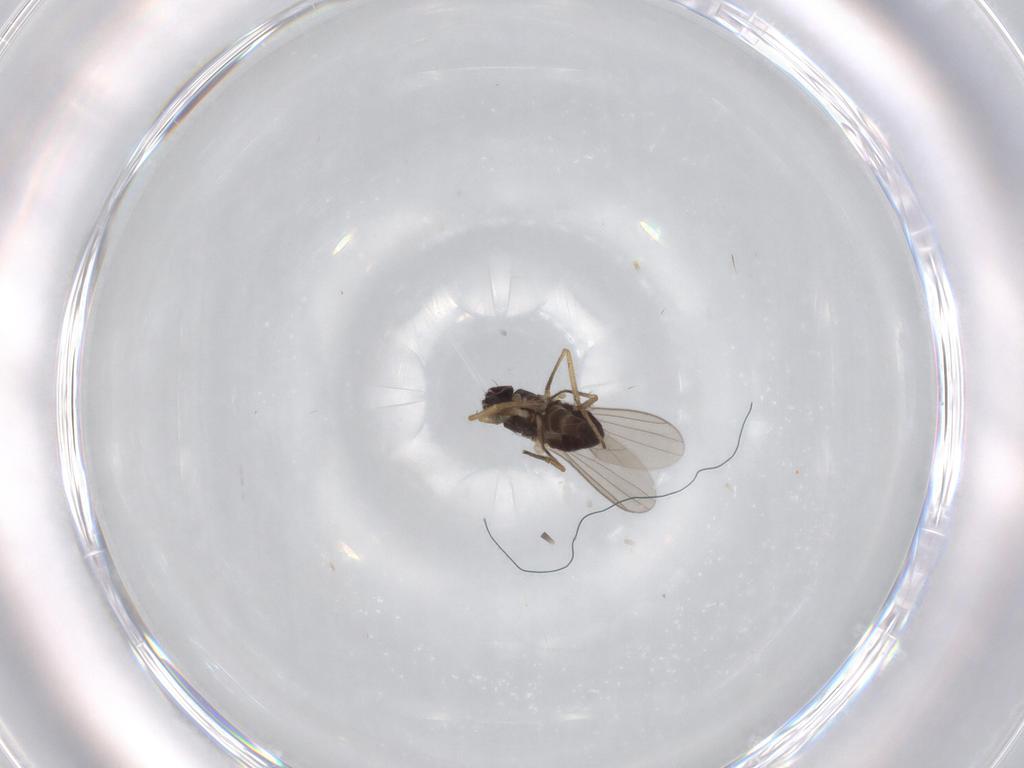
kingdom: Animalia
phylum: Arthropoda
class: Insecta
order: Diptera
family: Dolichopodidae
